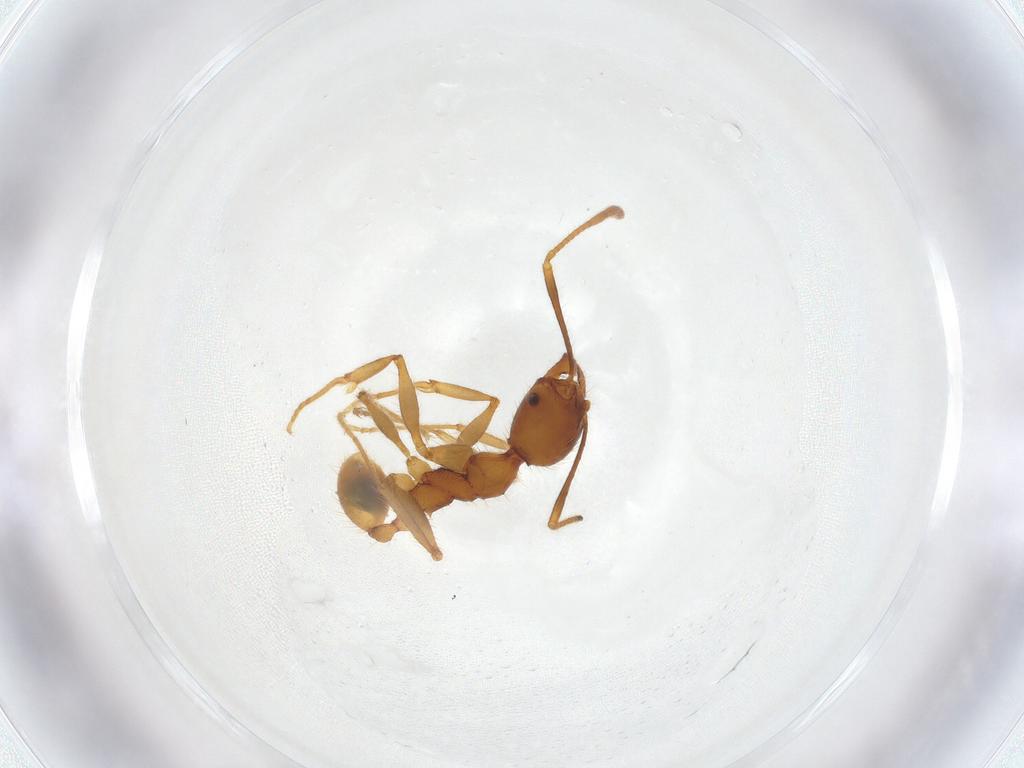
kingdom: Animalia
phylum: Arthropoda
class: Insecta
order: Hymenoptera
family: Formicidae
